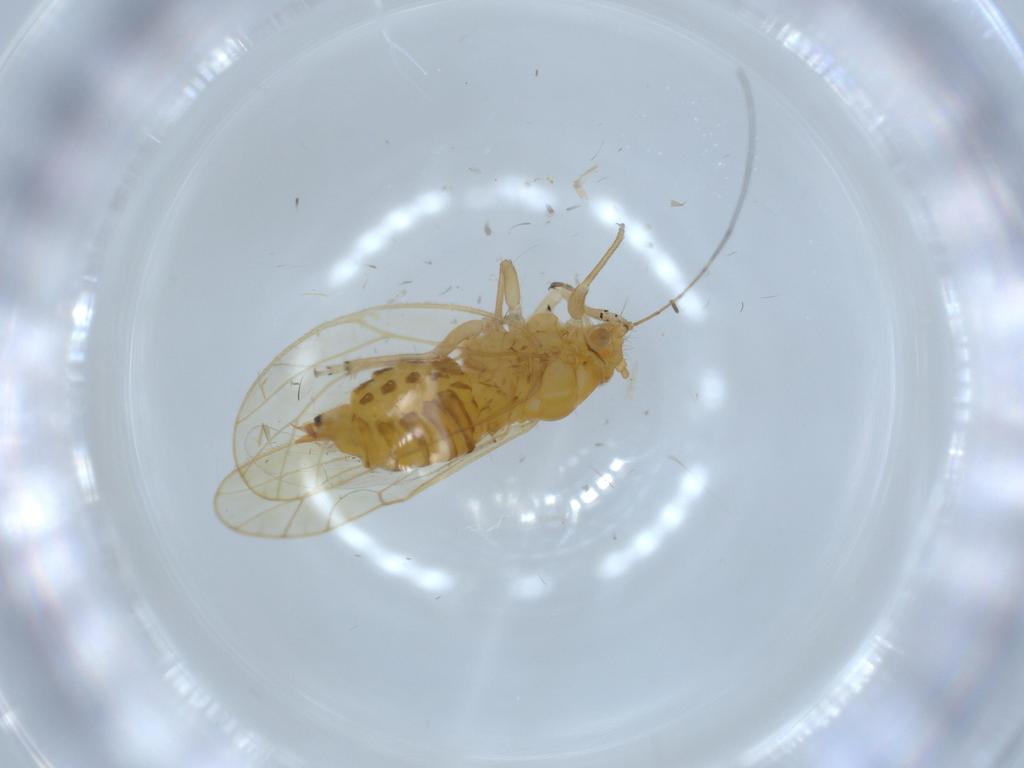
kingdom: Animalia
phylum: Arthropoda
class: Insecta
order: Hemiptera
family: Psyllidae
